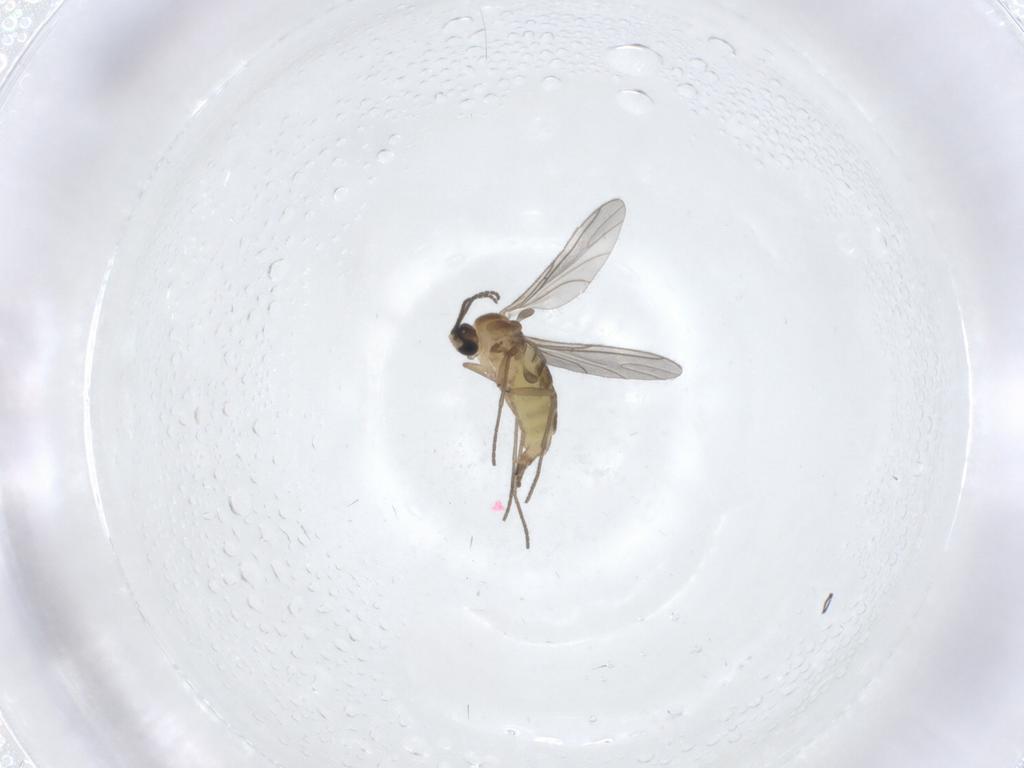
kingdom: Animalia
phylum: Arthropoda
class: Insecta
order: Diptera
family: Sciaridae
